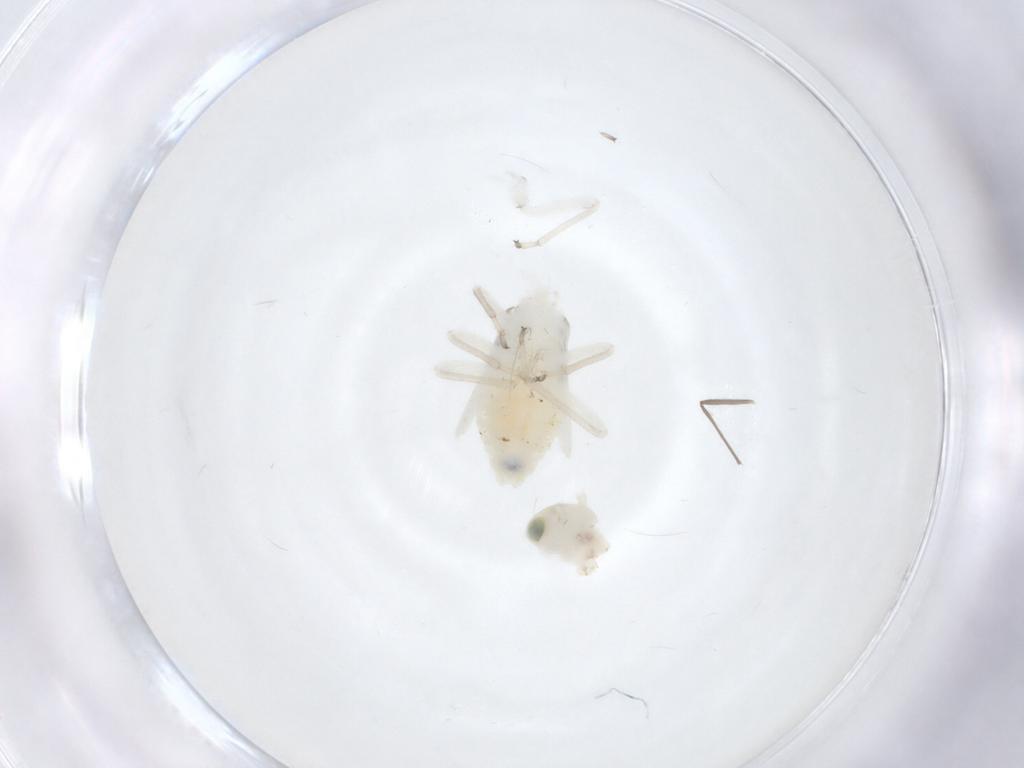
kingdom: Animalia
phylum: Arthropoda
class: Insecta
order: Psocodea
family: Caeciliusidae
